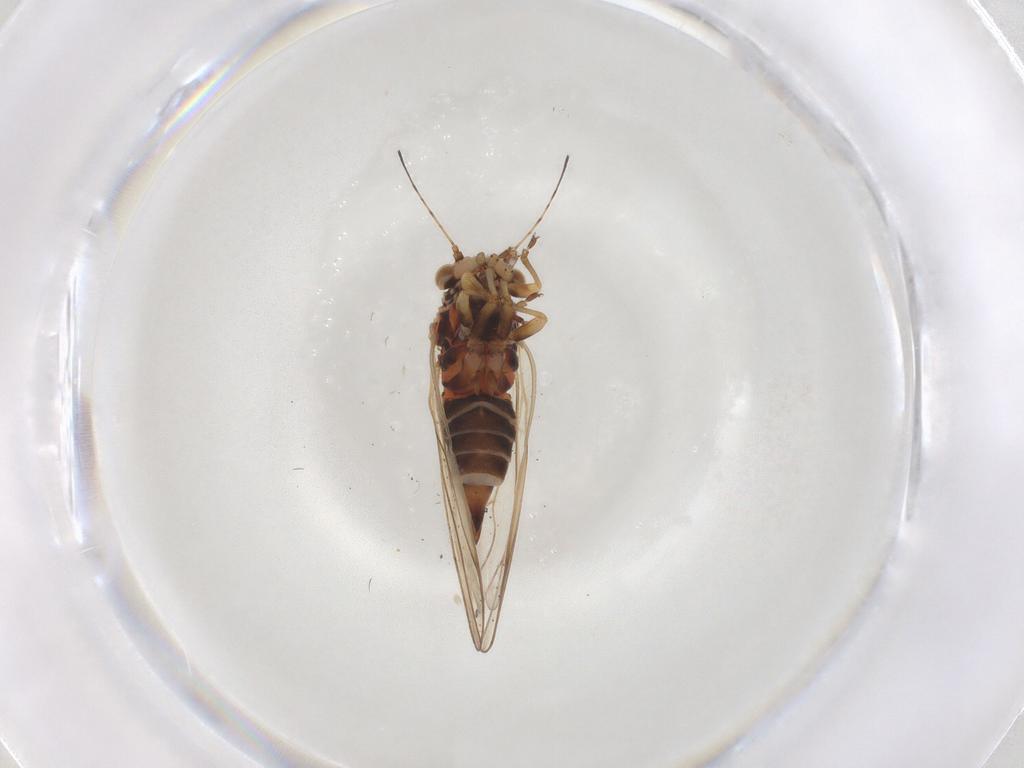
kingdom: Animalia
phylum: Arthropoda
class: Insecta
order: Hemiptera
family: Psyllidae
